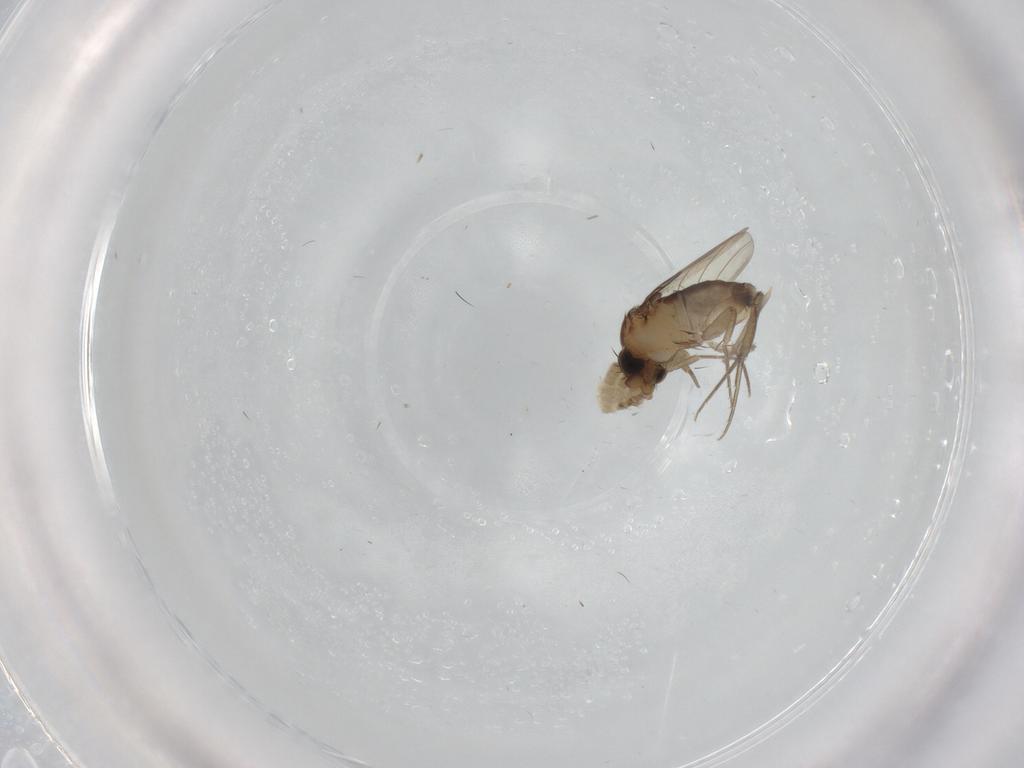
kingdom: Animalia
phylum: Arthropoda
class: Insecta
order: Diptera
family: Phoridae
